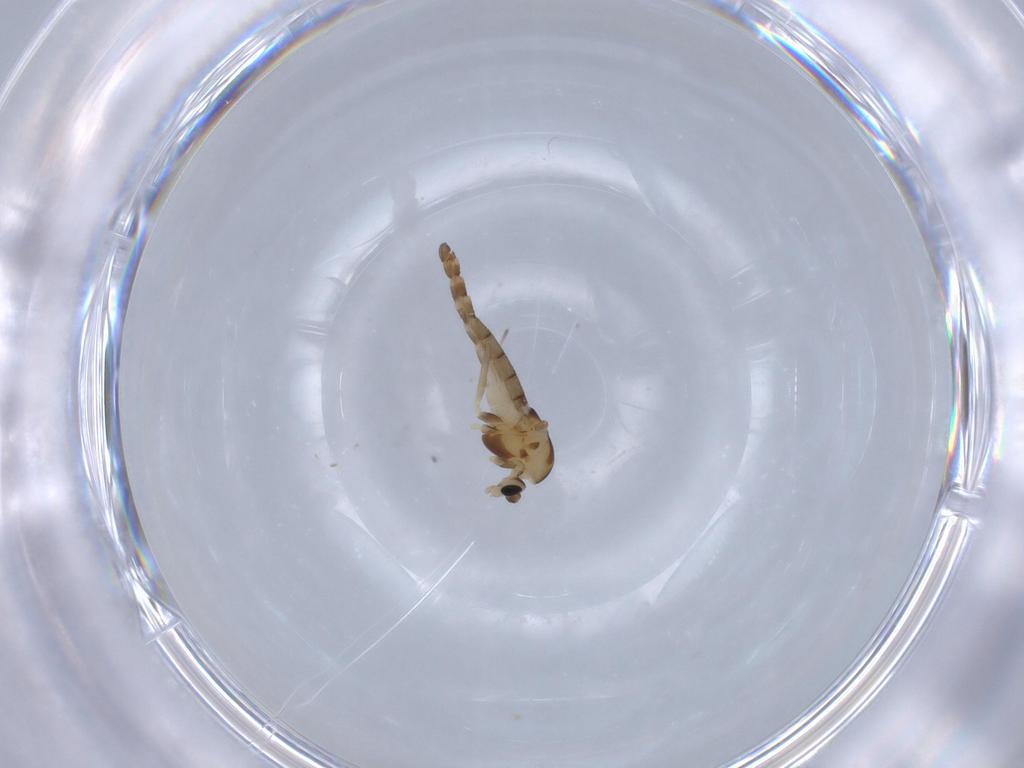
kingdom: Animalia
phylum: Arthropoda
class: Insecta
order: Diptera
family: Chironomidae
